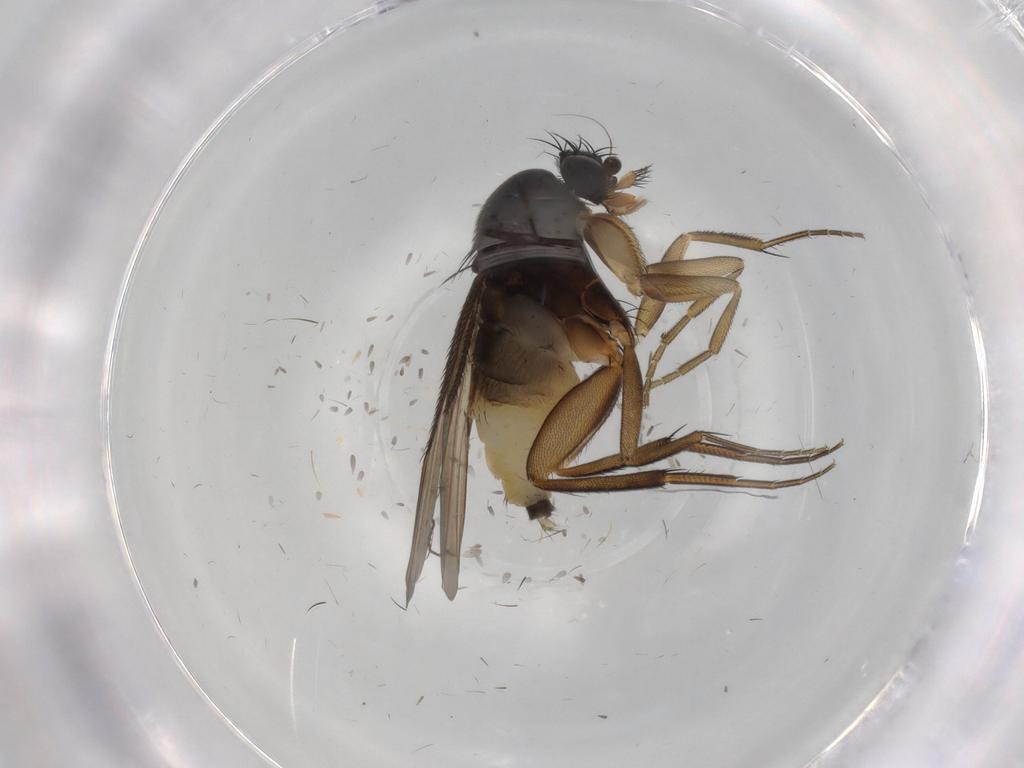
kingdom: Animalia
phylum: Arthropoda
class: Insecta
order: Diptera
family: Phoridae
